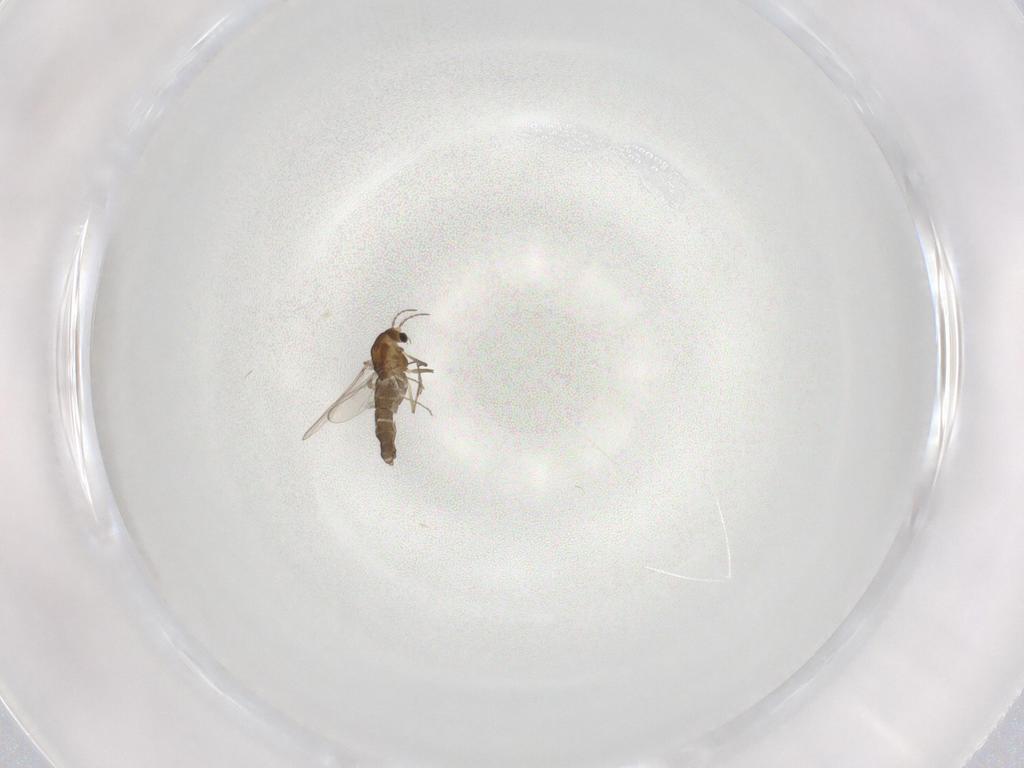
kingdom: Animalia
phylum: Arthropoda
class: Insecta
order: Diptera
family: Chironomidae
